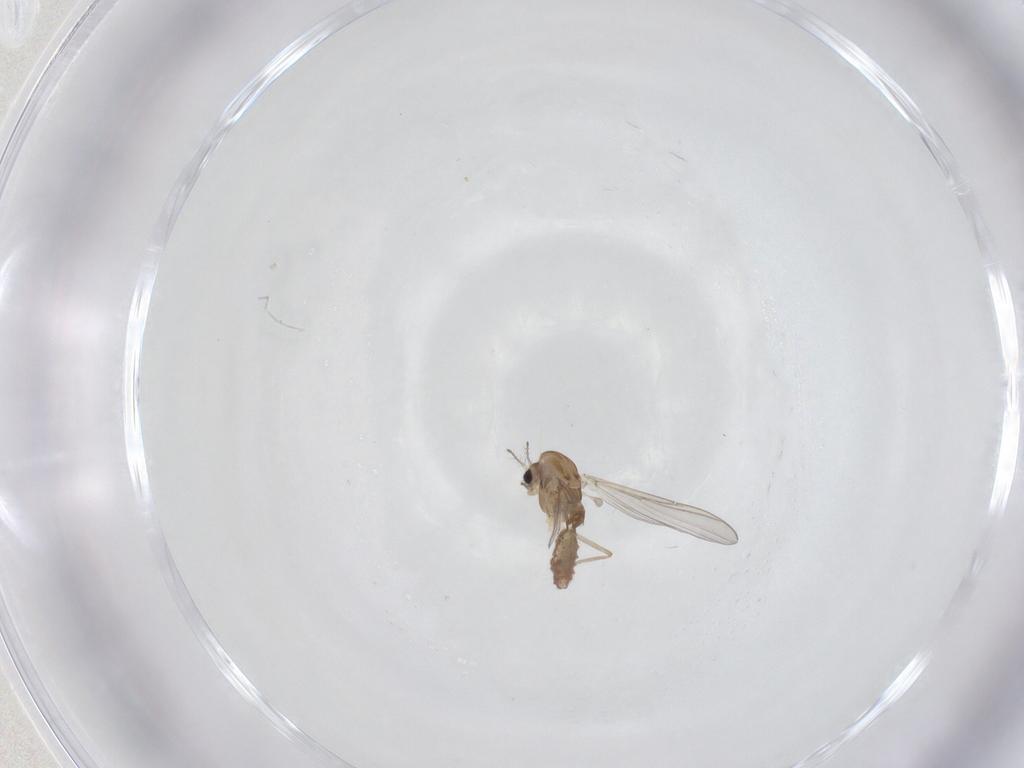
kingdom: Animalia
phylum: Arthropoda
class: Insecta
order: Diptera
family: Chironomidae
